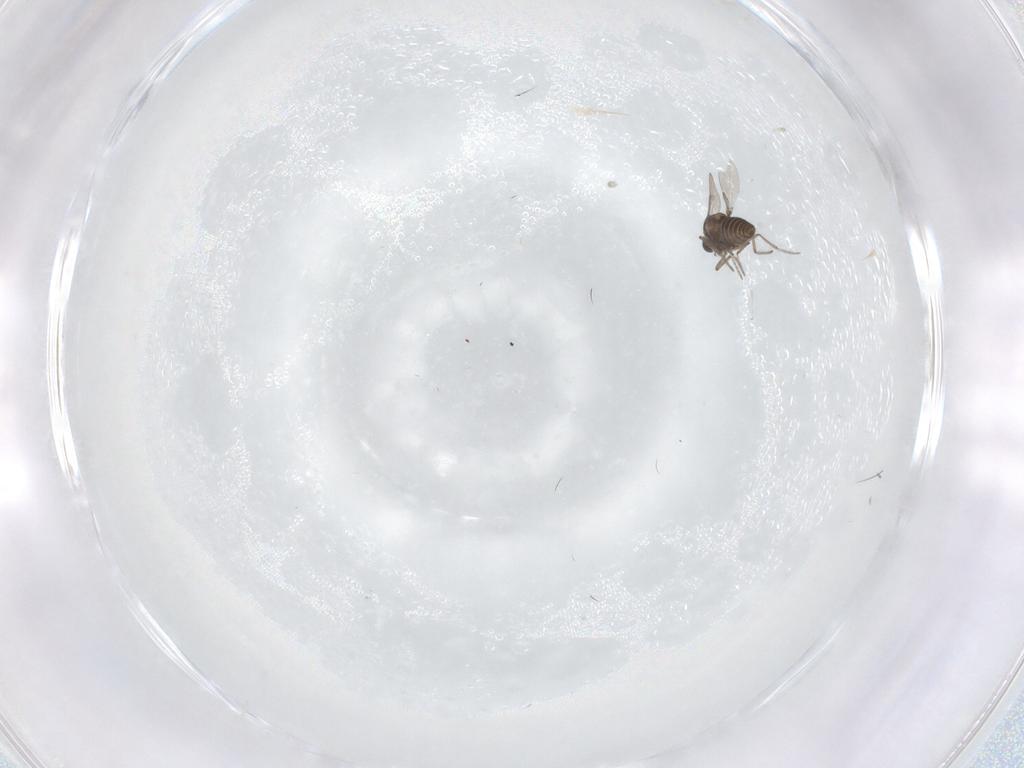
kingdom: Animalia
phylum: Arthropoda
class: Insecta
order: Diptera
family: Ceratopogonidae
